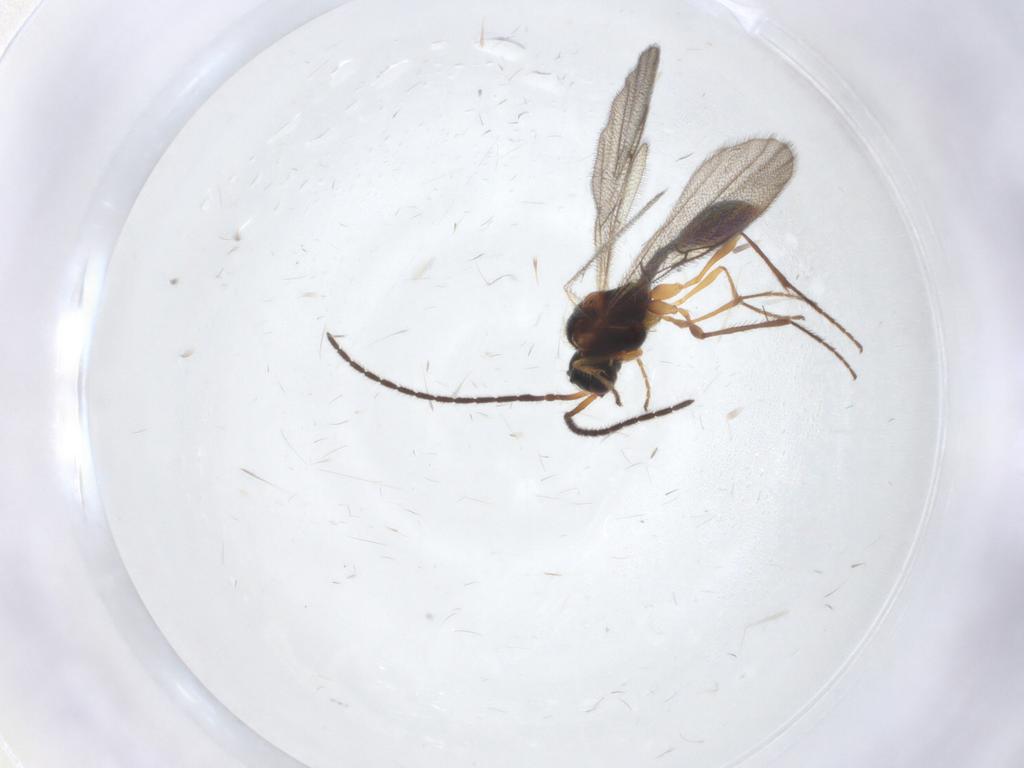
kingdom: Animalia
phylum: Arthropoda
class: Insecta
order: Hymenoptera
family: Diapriidae
